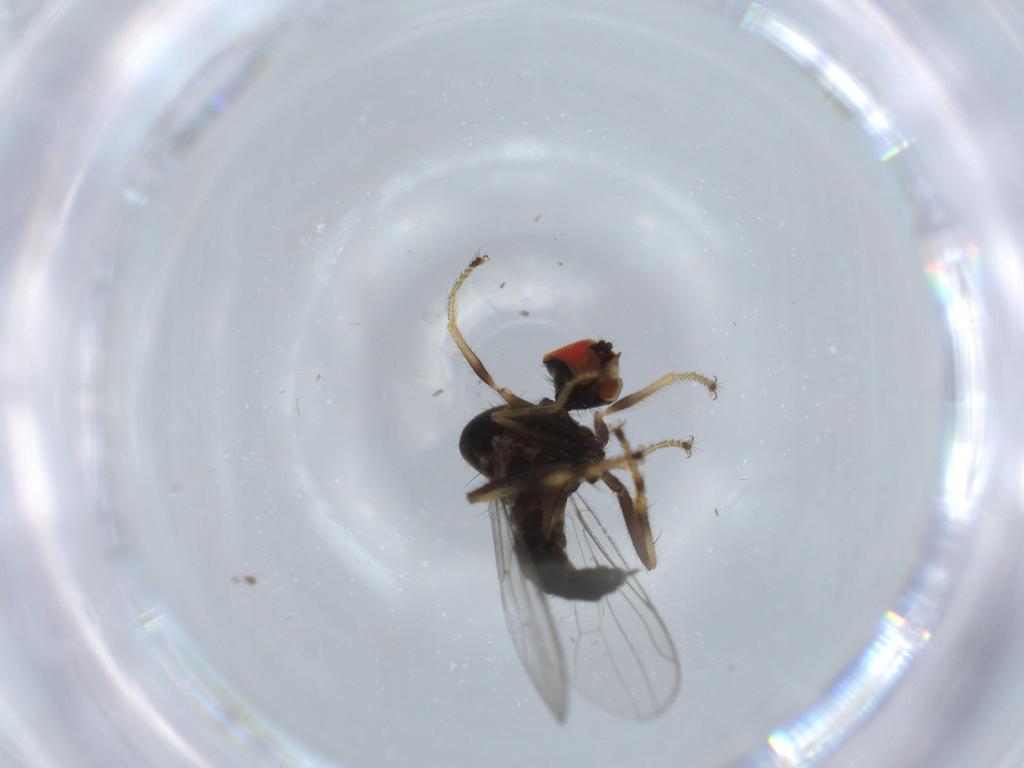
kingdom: Animalia
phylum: Arthropoda
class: Insecta
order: Diptera
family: Hybotidae
